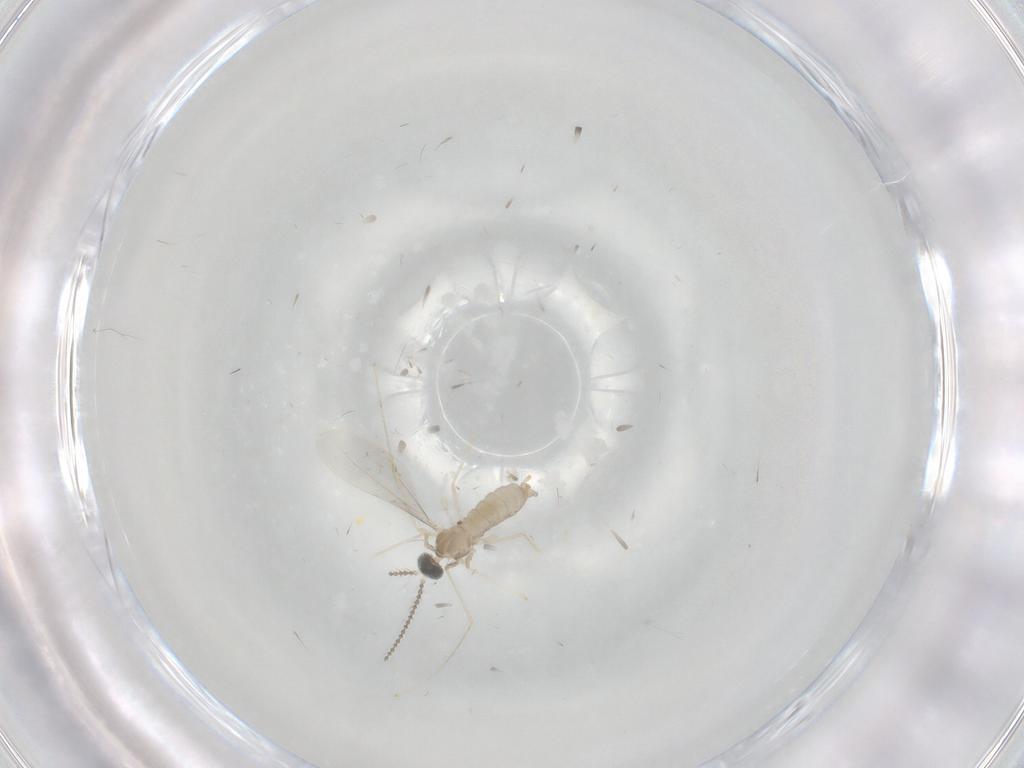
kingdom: Animalia
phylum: Arthropoda
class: Insecta
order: Diptera
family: Cecidomyiidae
